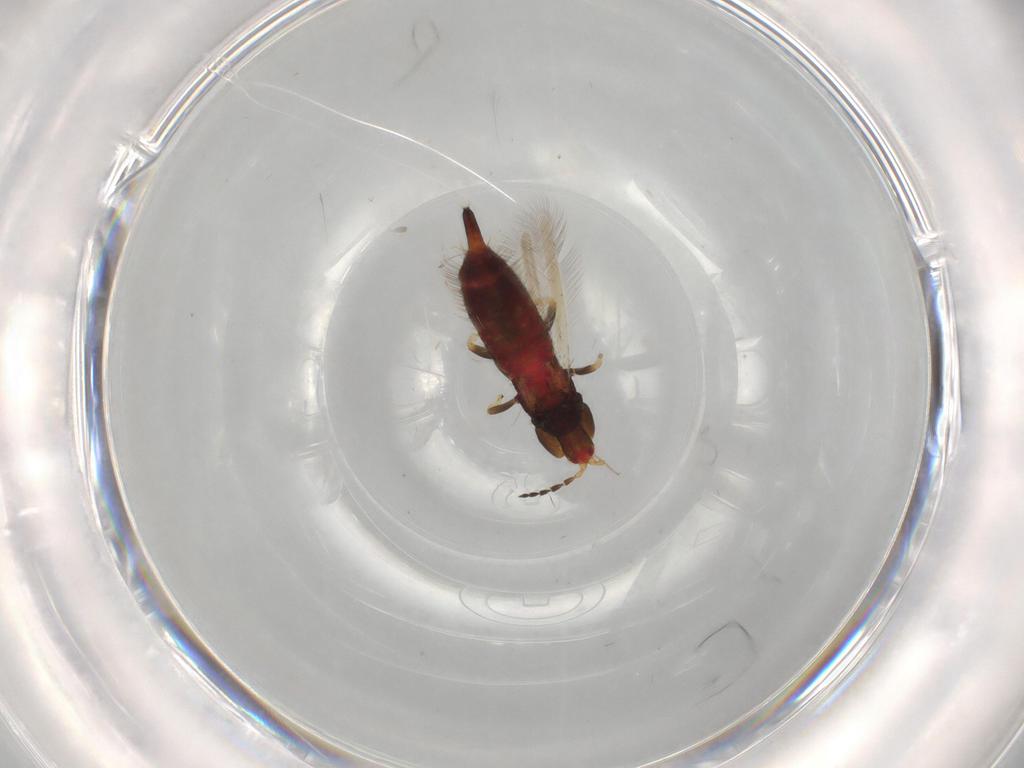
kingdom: Animalia
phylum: Arthropoda
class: Insecta
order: Thysanoptera
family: Phlaeothripidae
